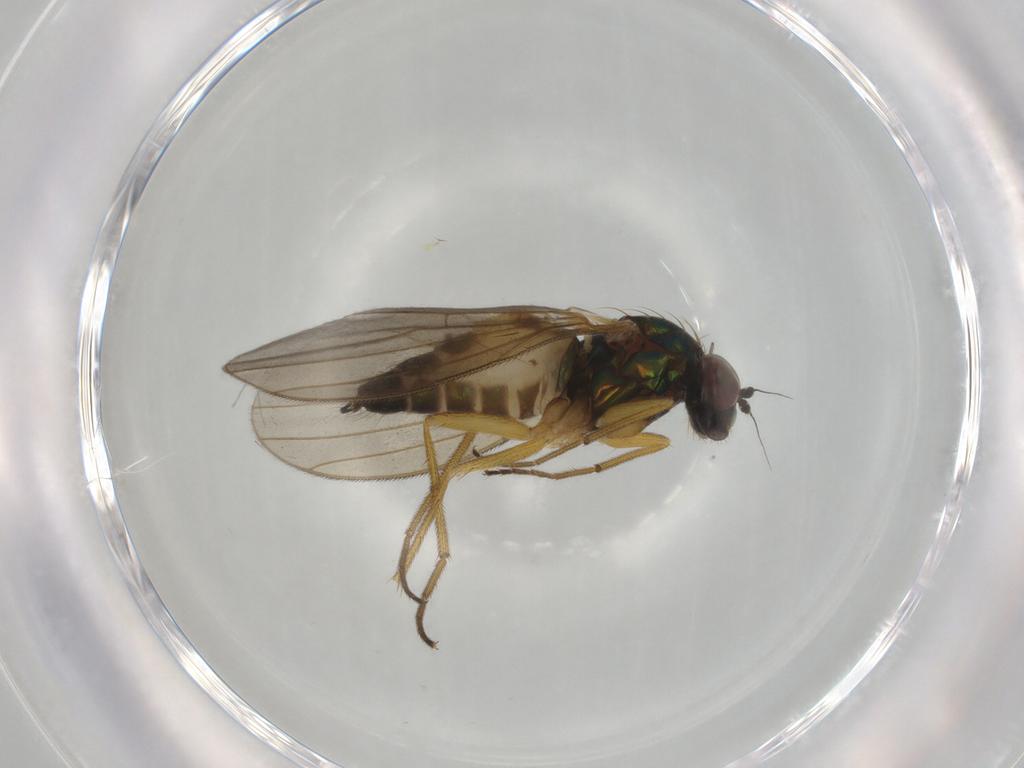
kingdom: Animalia
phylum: Arthropoda
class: Insecta
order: Diptera
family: Dolichopodidae
